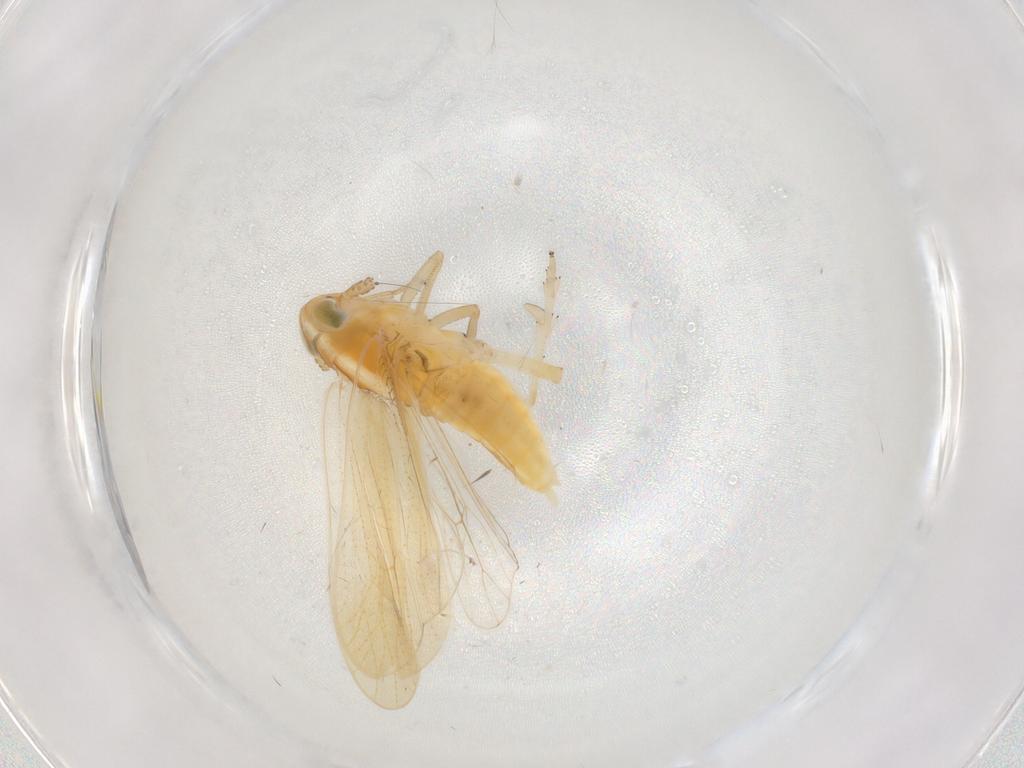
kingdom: Animalia
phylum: Arthropoda
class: Insecta
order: Hemiptera
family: Delphacidae
